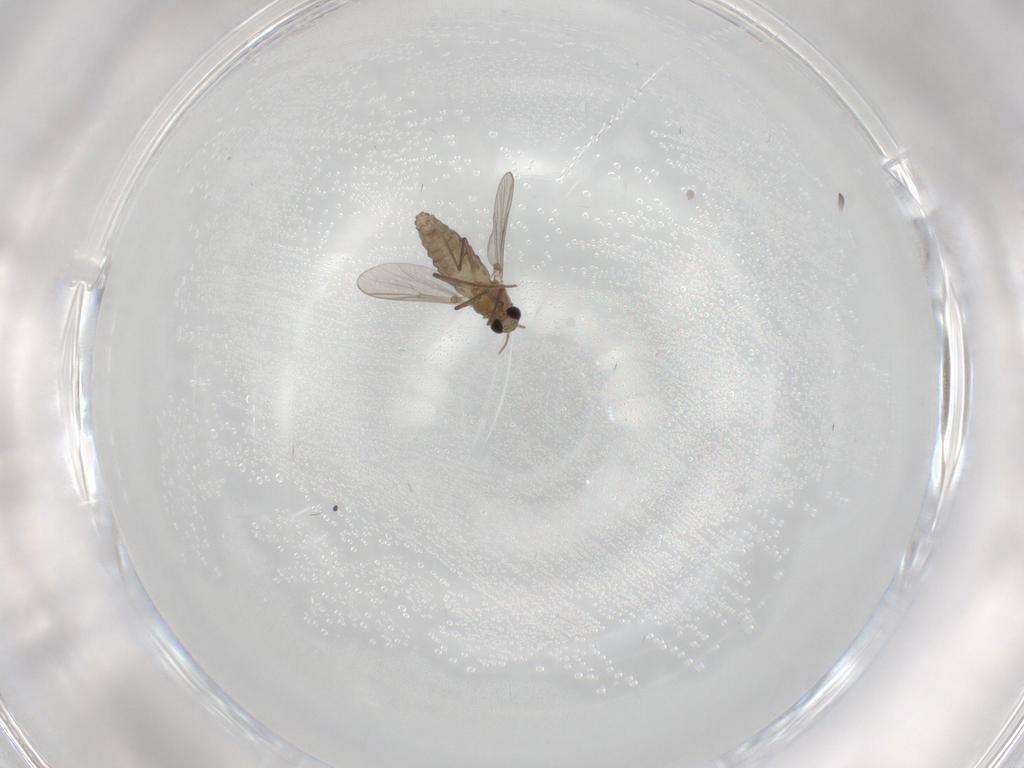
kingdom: Animalia
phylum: Arthropoda
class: Insecta
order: Diptera
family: Chironomidae
